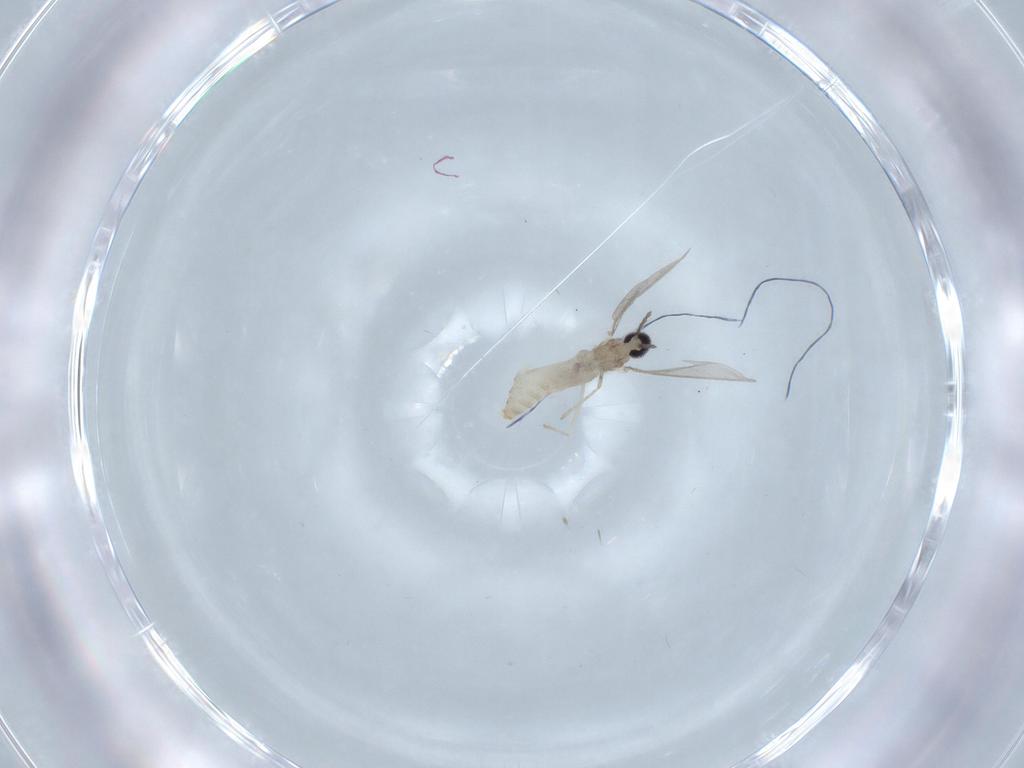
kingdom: Animalia
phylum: Arthropoda
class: Insecta
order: Diptera
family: Cecidomyiidae
